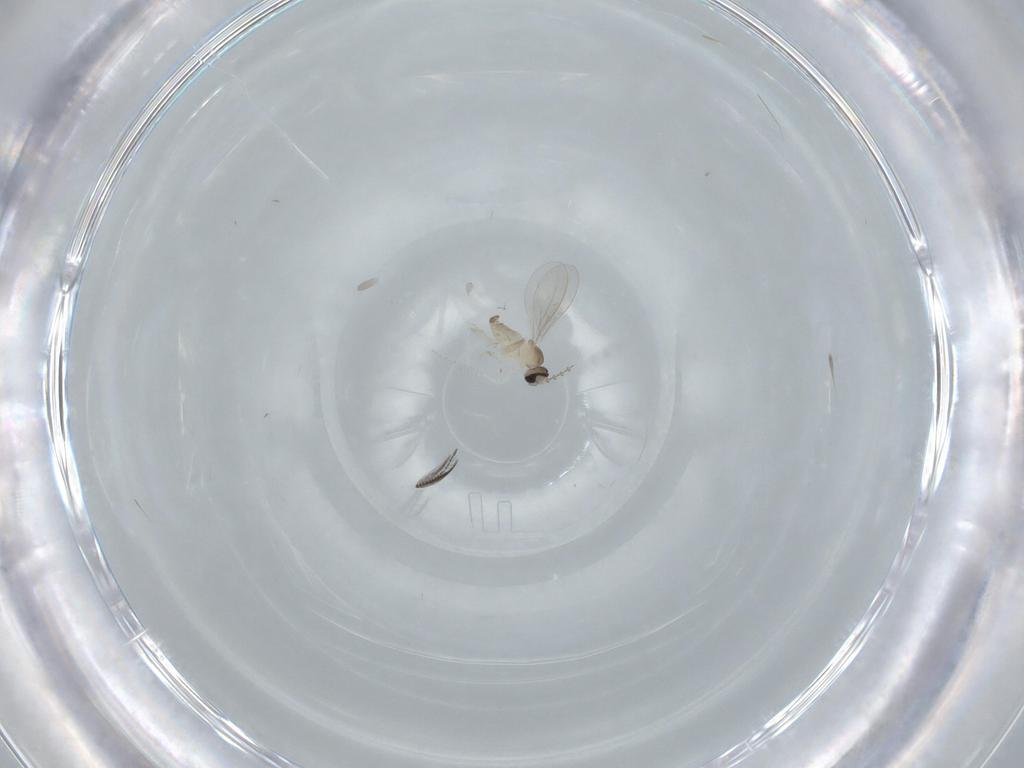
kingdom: Animalia
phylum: Arthropoda
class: Insecta
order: Diptera
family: Cecidomyiidae
